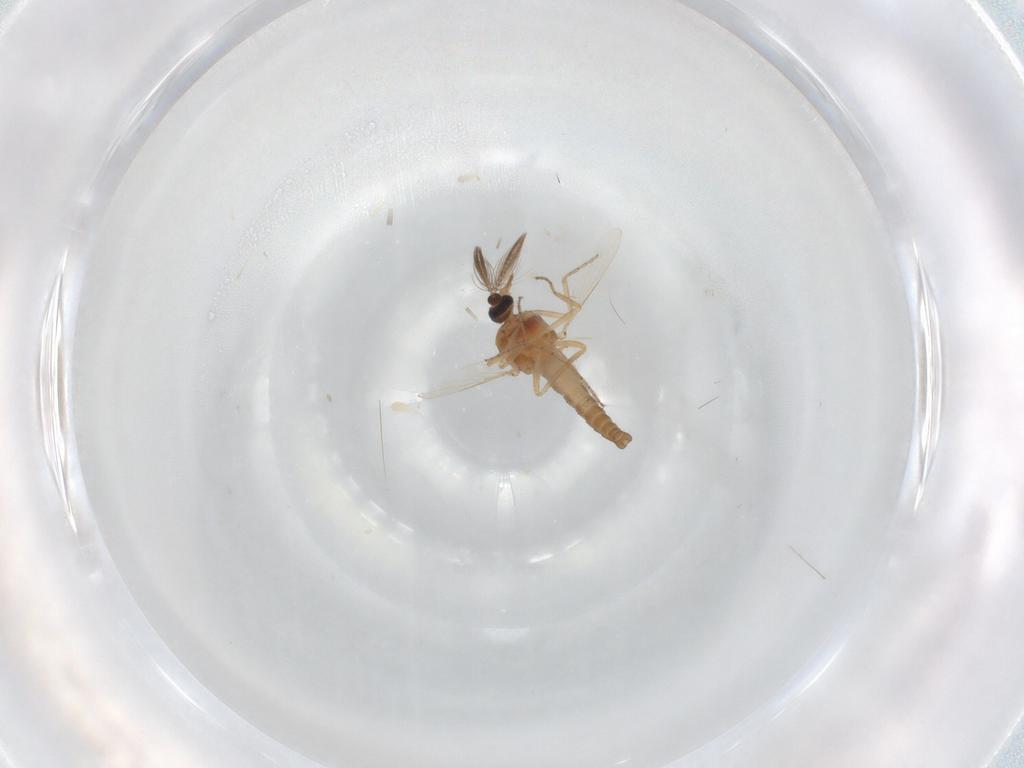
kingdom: Animalia
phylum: Arthropoda
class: Insecta
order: Diptera
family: Ceratopogonidae
